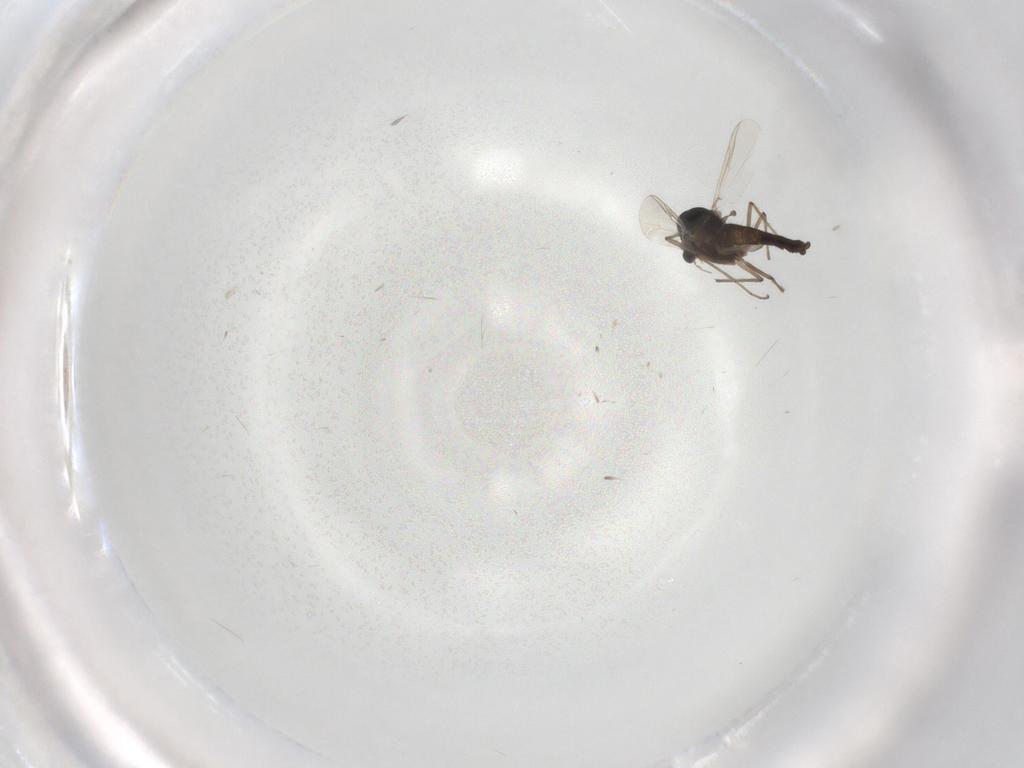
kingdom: Animalia
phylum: Arthropoda
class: Insecta
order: Diptera
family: Chironomidae
